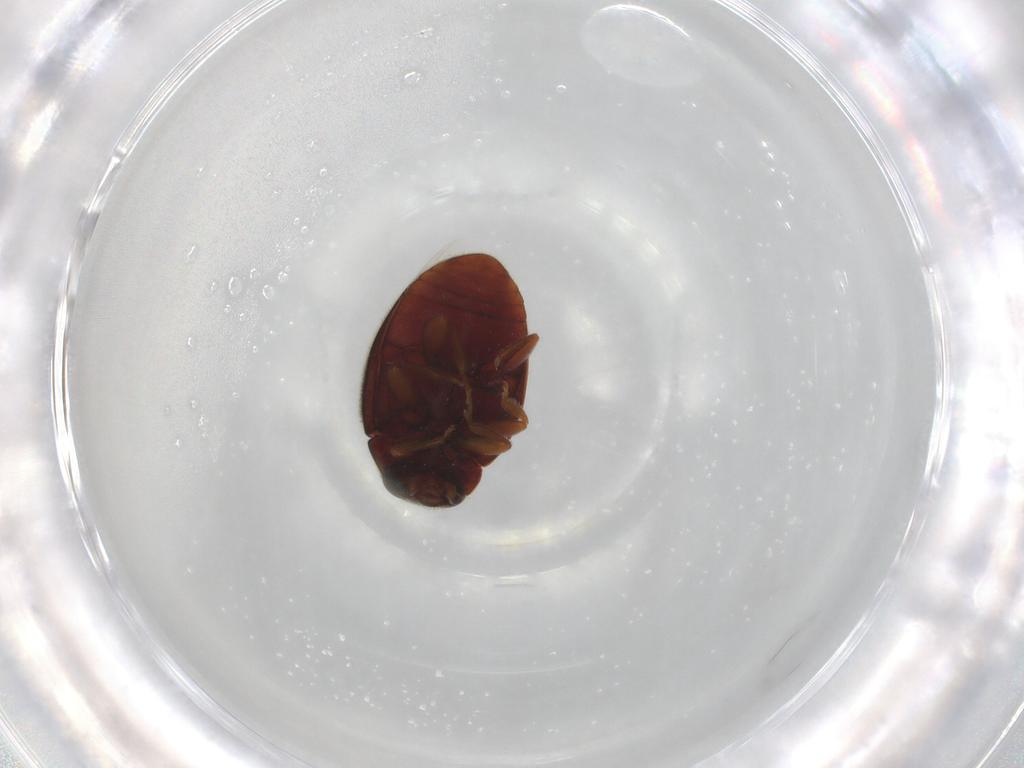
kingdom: Animalia
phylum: Arthropoda
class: Insecta
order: Coleoptera
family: Coccinellidae
